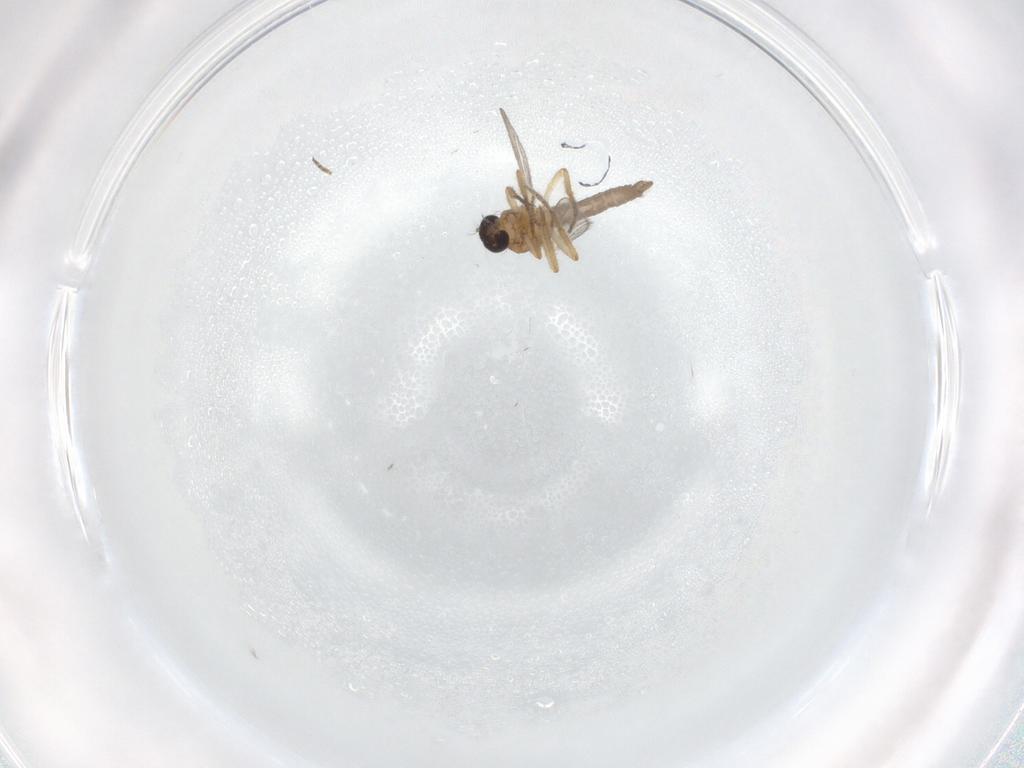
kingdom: Animalia
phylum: Arthropoda
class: Insecta
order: Diptera
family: Ceratopogonidae
